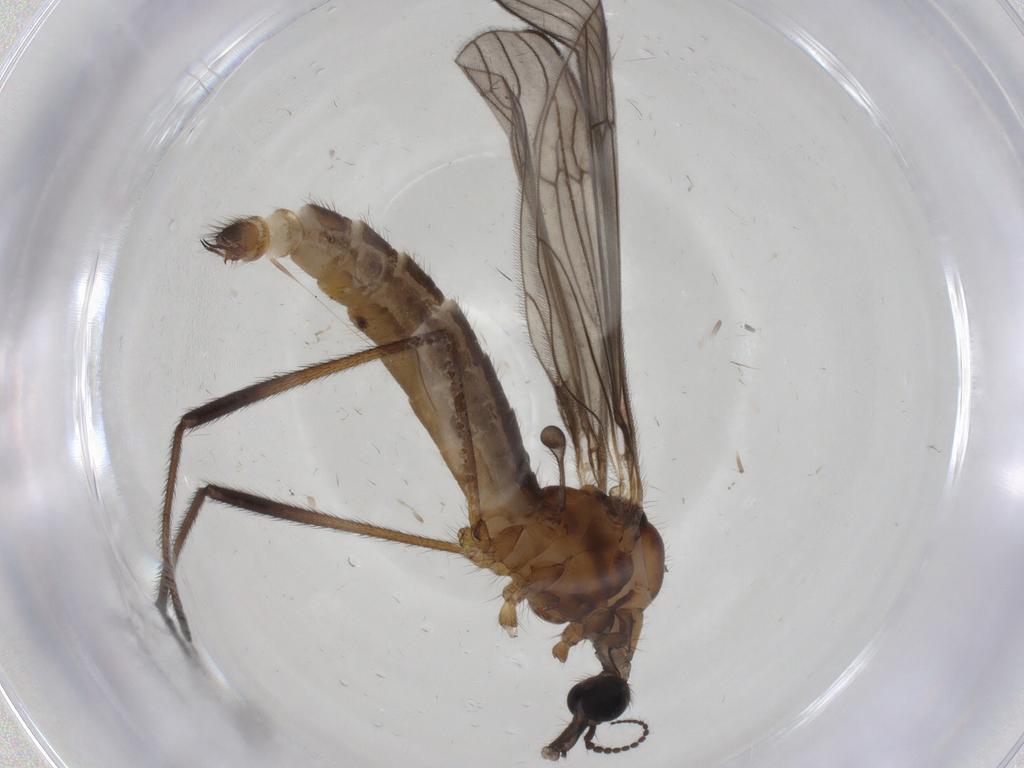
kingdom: Animalia
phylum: Arthropoda
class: Insecta
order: Diptera
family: Limoniidae
